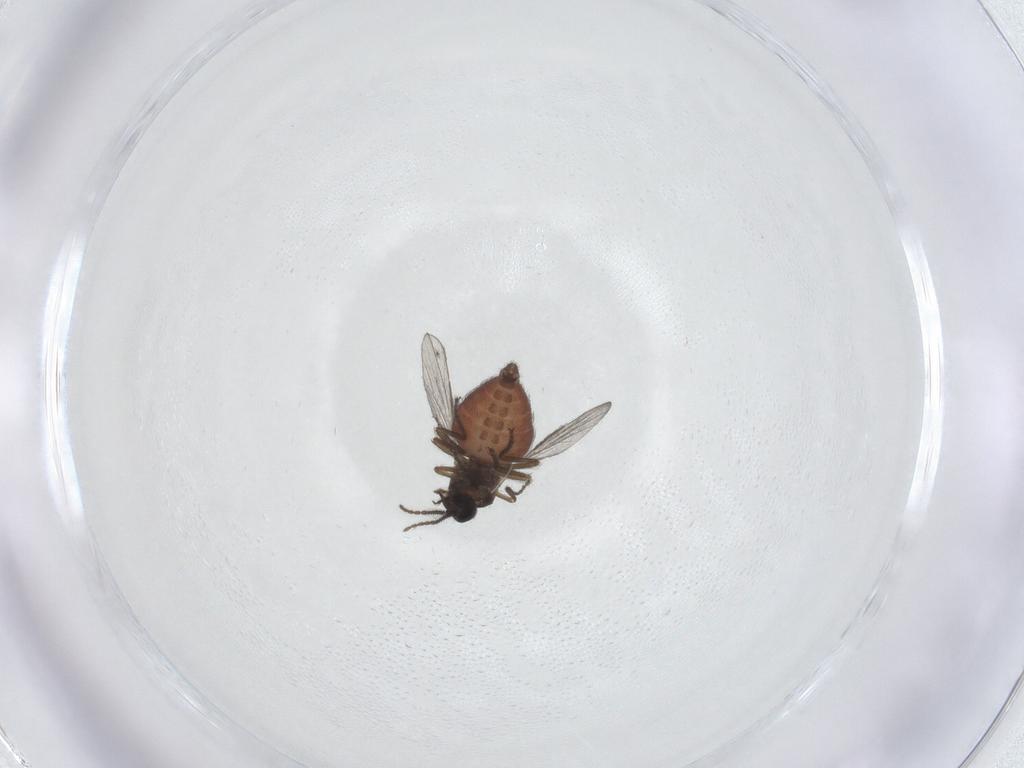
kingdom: Animalia
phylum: Arthropoda
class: Insecta
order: Diptera
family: Ceratopogonidae
